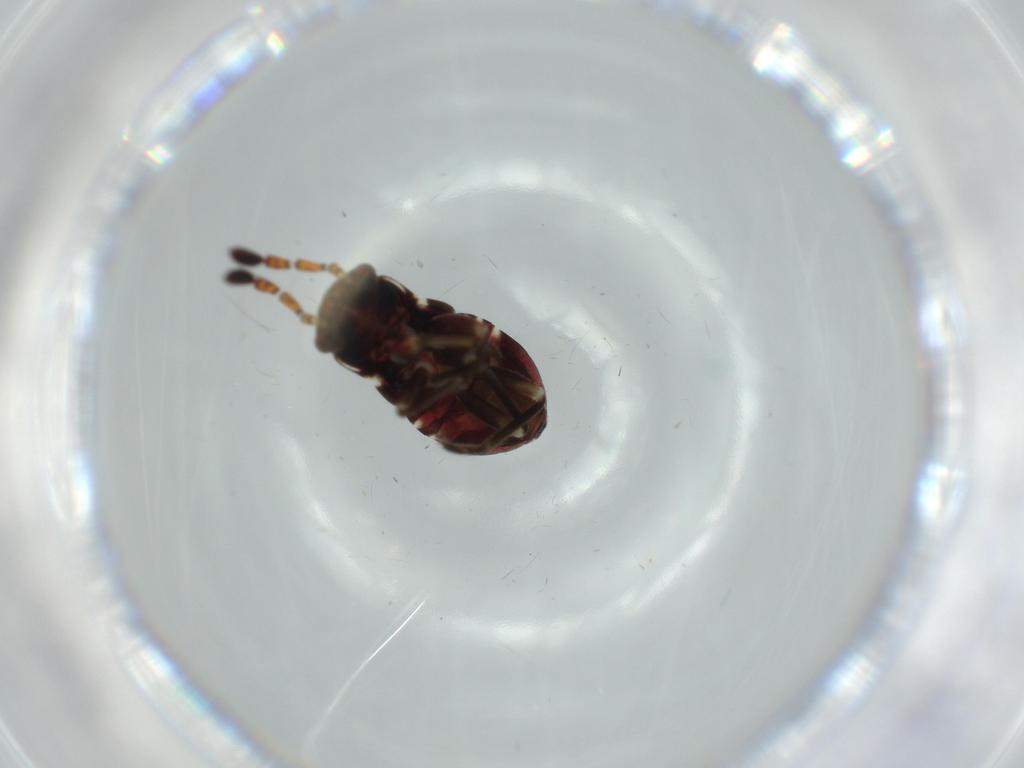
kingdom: Animalia
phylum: Arthropoda
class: Insecta
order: Hemiptera
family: Rhyparochromidae
